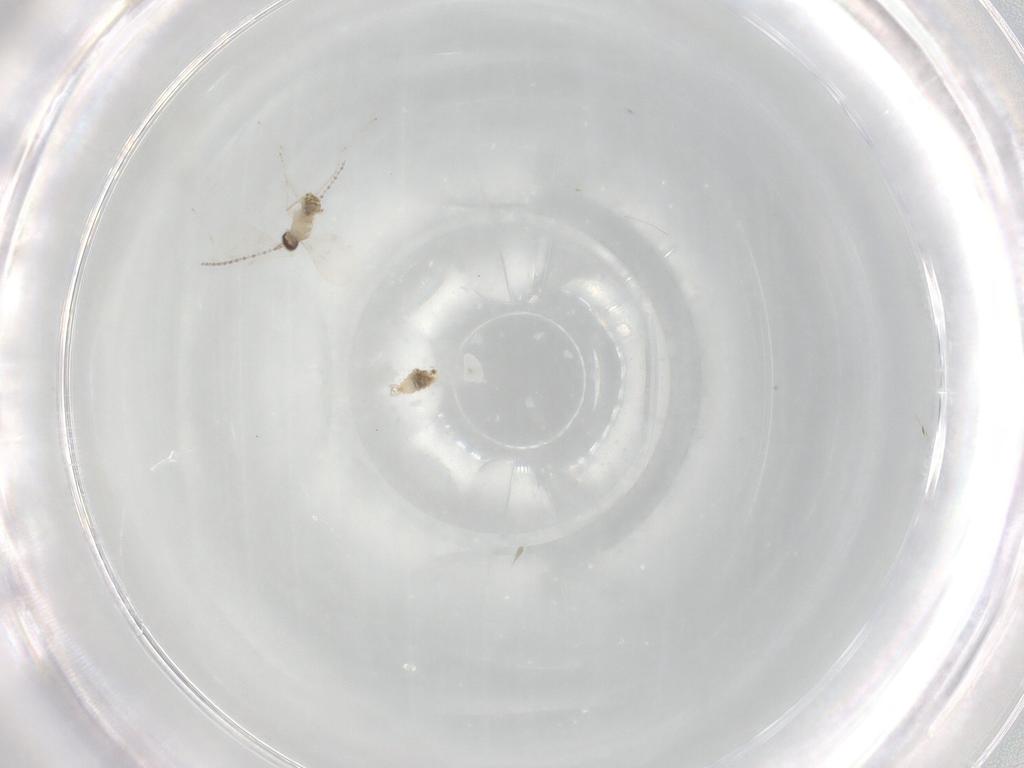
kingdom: Animalia
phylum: Arthropoda
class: Insecta
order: Diptera
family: Cecidomyiidae
